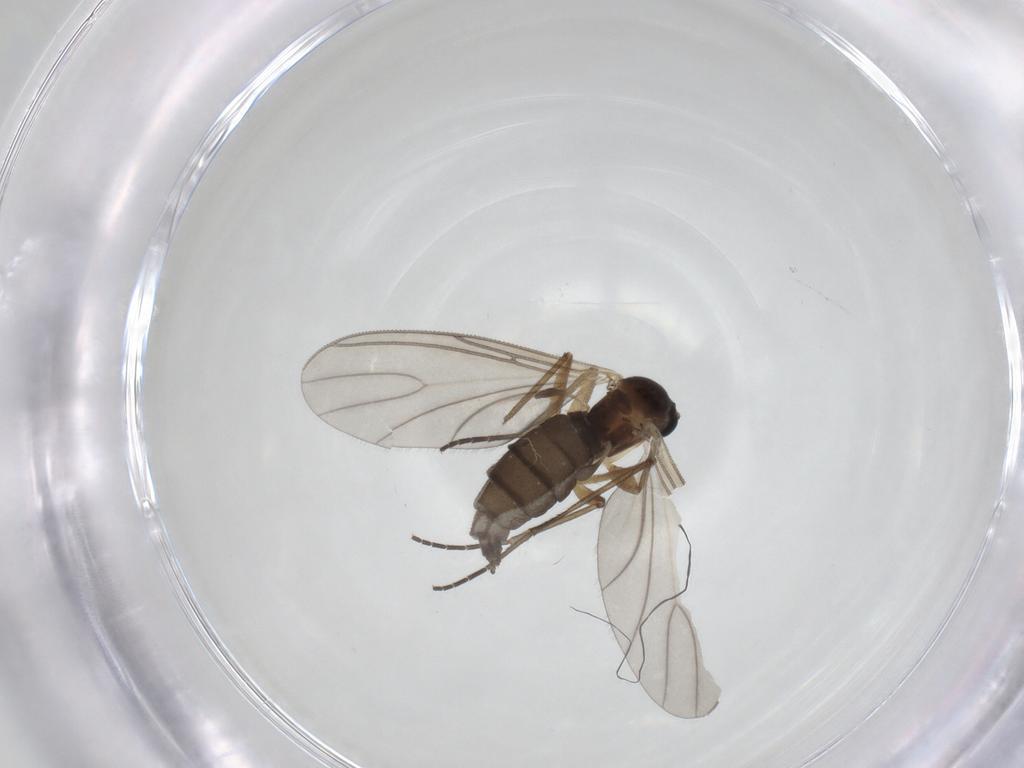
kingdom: Animalia
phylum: Arthropoda
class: Insecta
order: Diptera
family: Sciaridae
